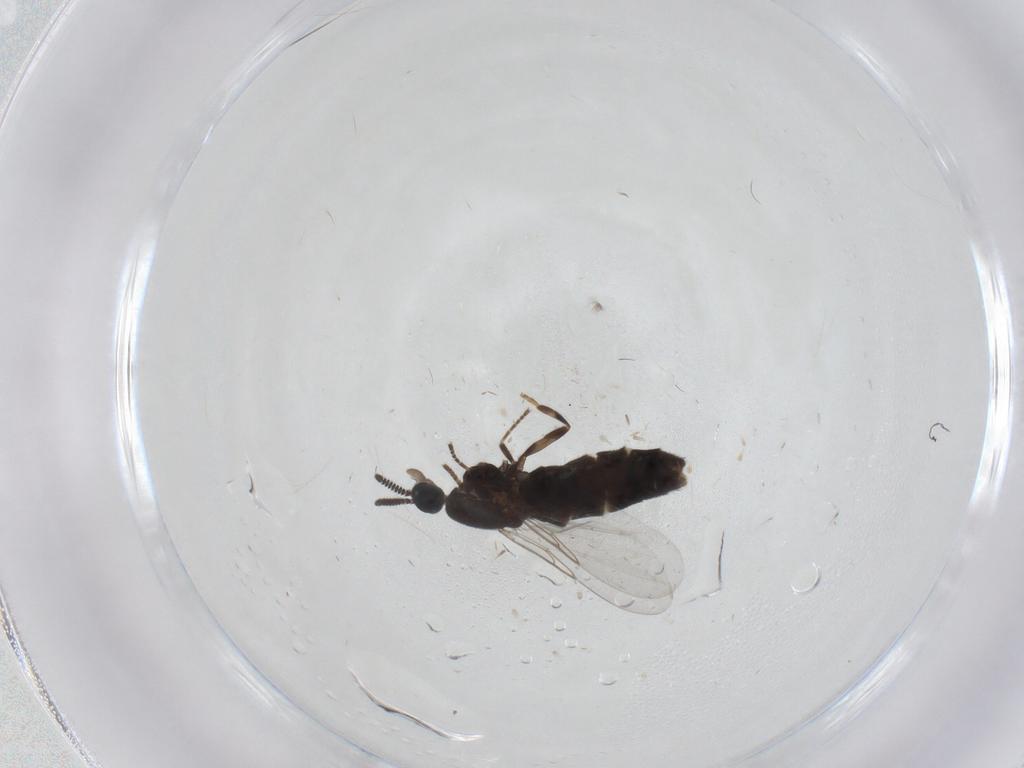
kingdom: Animalia
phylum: Arthropoda
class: Insecta
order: Diptera
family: Scatopsidae
